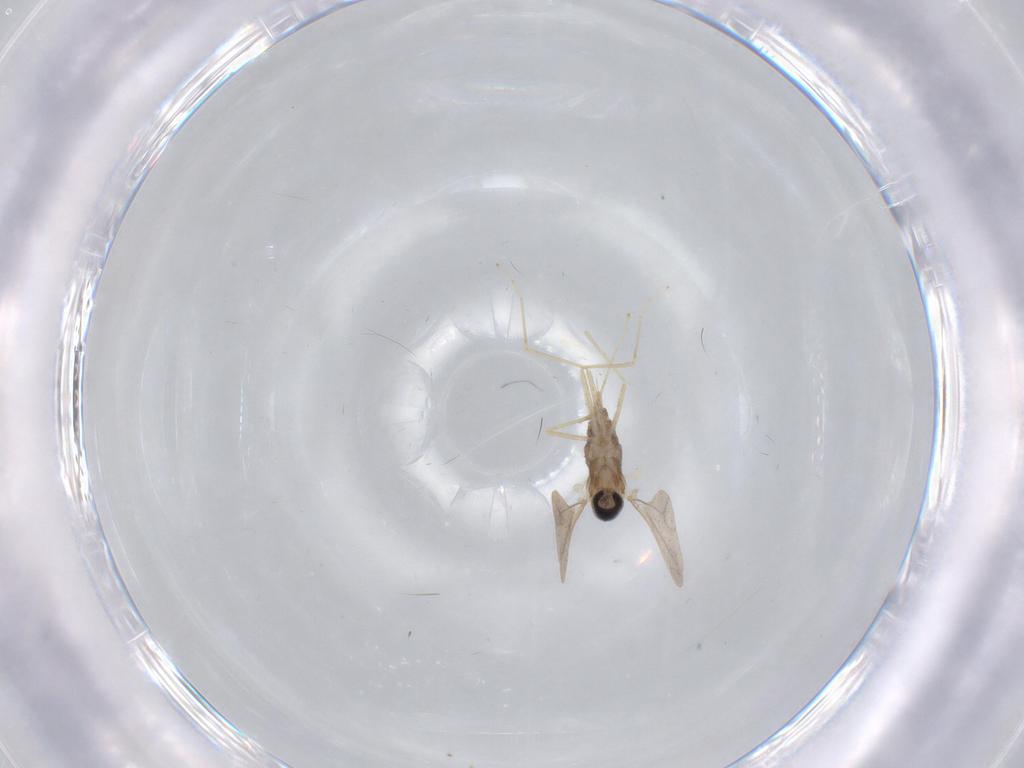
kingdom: Animalia
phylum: Arthropoda
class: Insecta
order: Diptera
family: Cecidomyiidae
